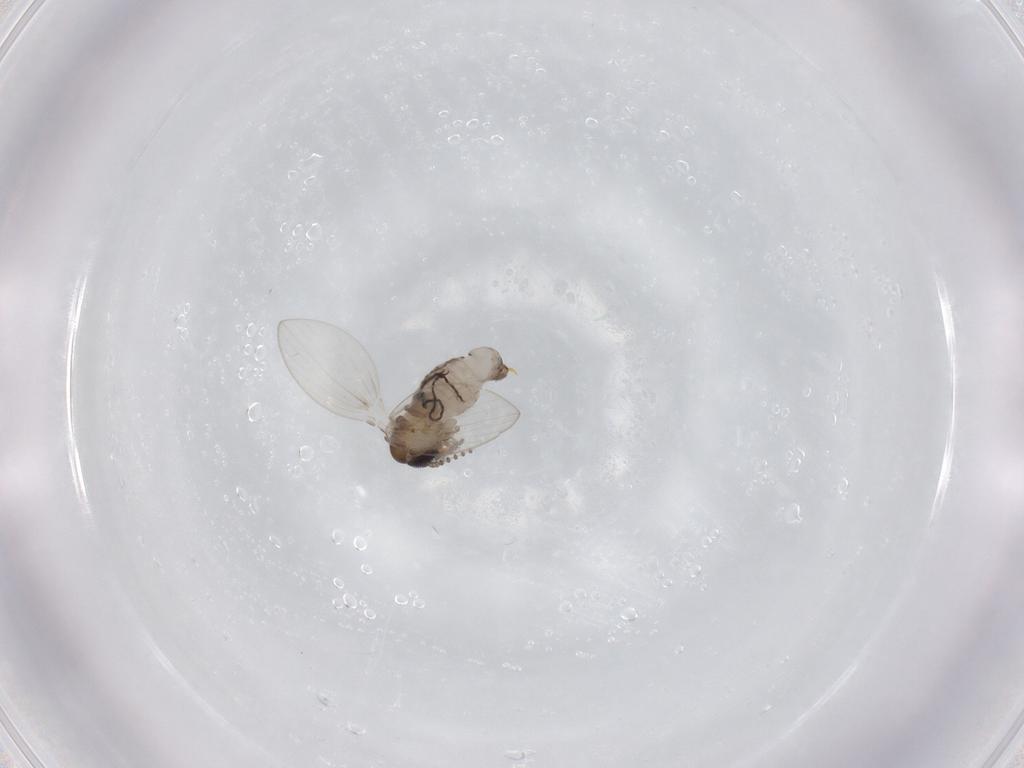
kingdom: Animalia
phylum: Arthropoda
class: Insecta
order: Diptera
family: Psychodidae
